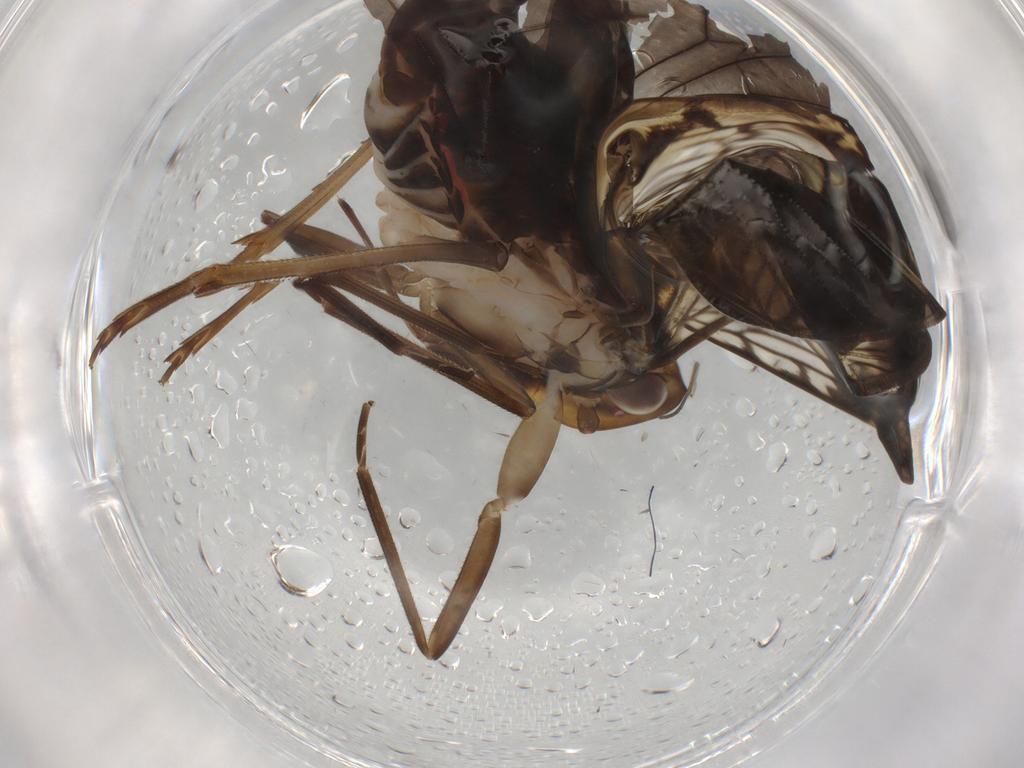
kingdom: Animalia
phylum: Arthropoda
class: Insecta
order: Hemiptera
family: Cixiidae
